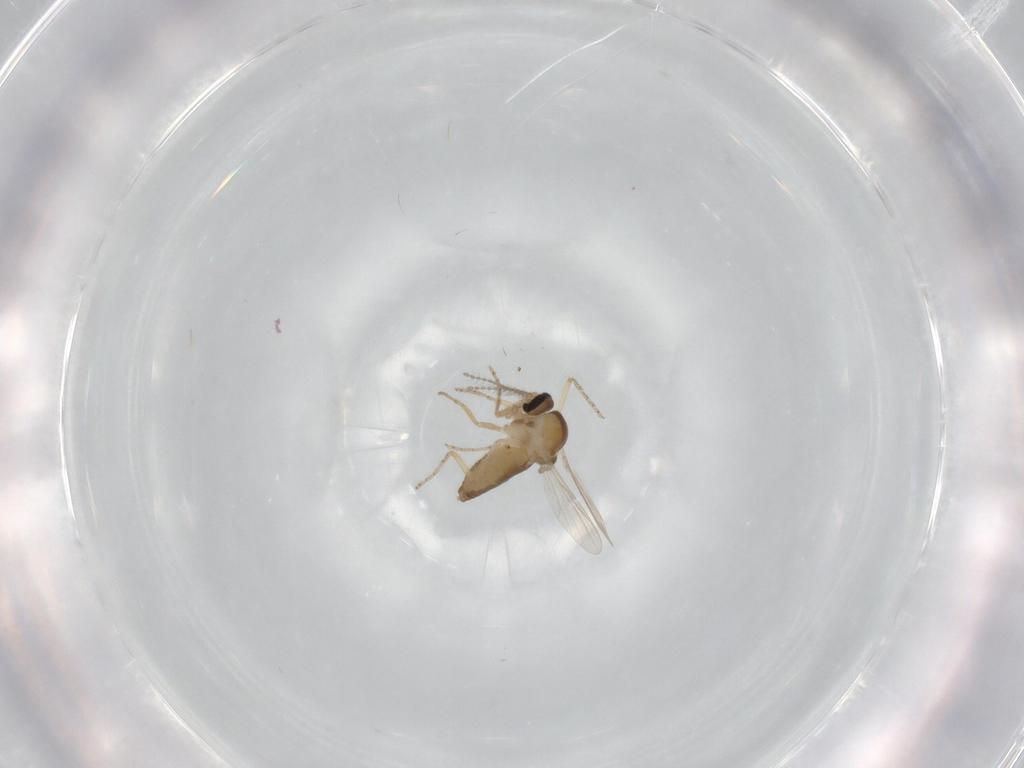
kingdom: Animalia
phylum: Arthropoda
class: Insecta
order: Diptera
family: Ceratopogonidae
